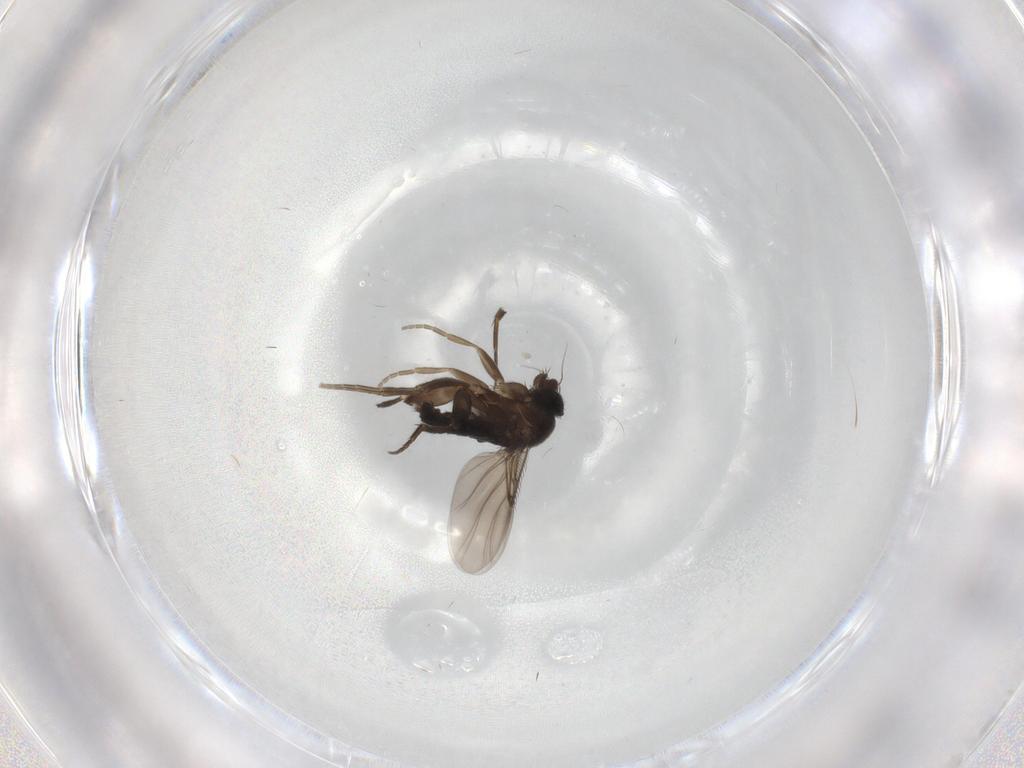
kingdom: Animalia
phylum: Arthropoda
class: Insecta
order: Diptera
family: Phoridae
